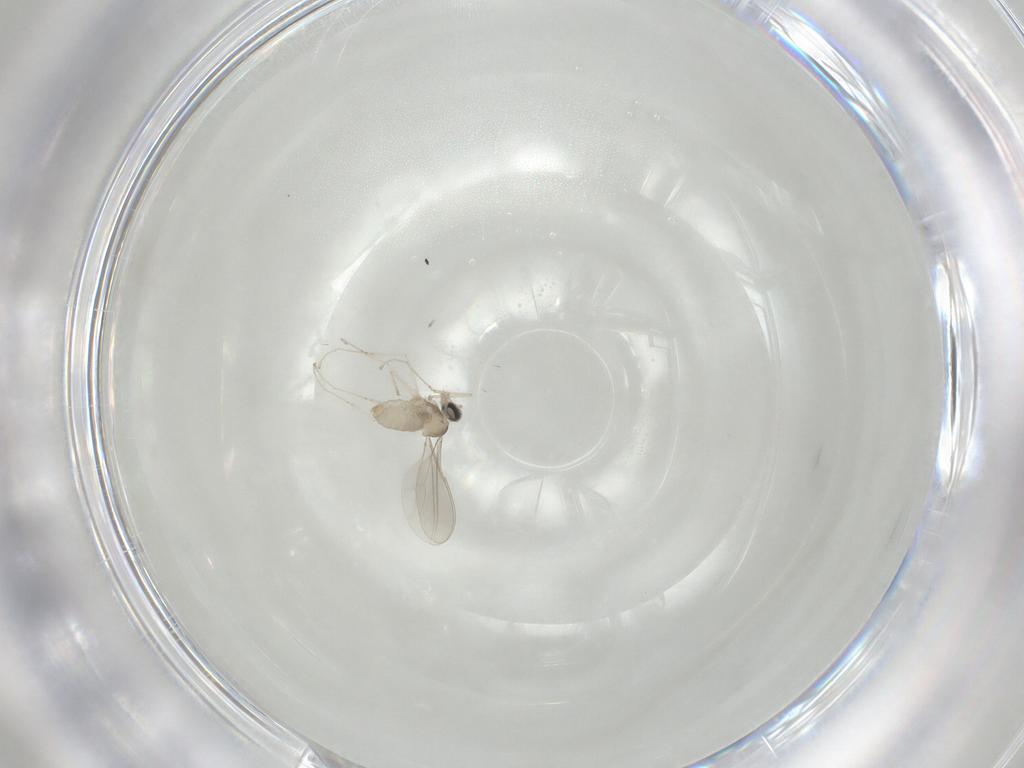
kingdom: Animalia
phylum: Arthropoda
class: Insecta
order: Diptera
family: Cecidomyiidae
